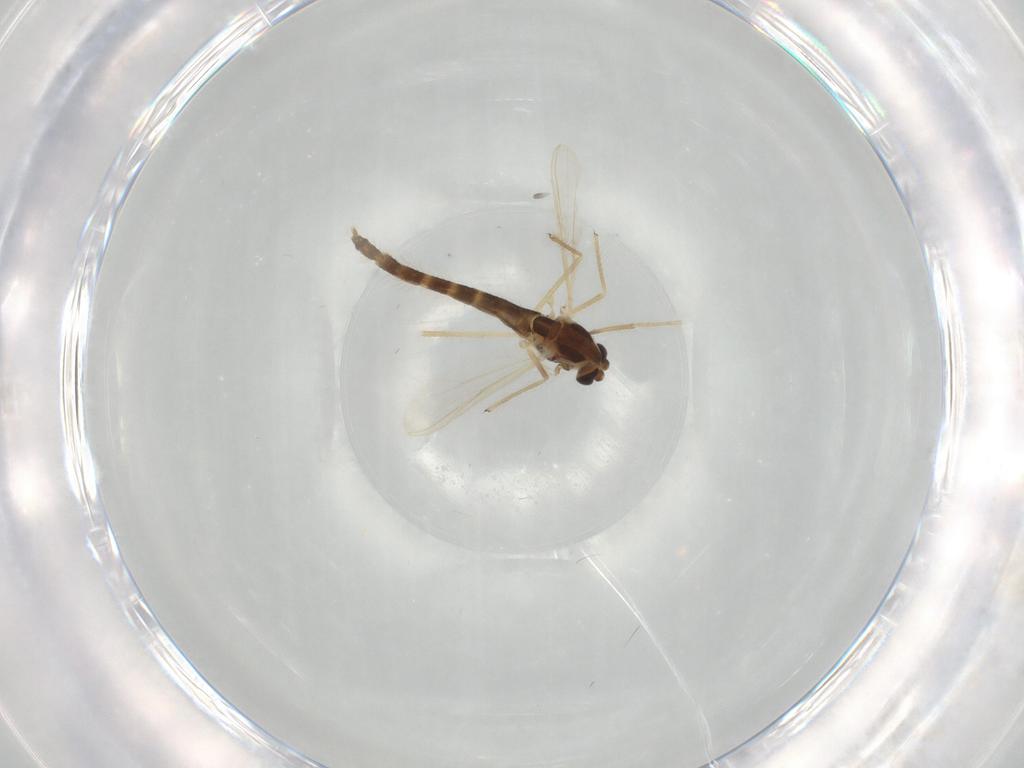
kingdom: Animalia
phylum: Arthropoda
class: Insecta
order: Diptera
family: Chironomidae
